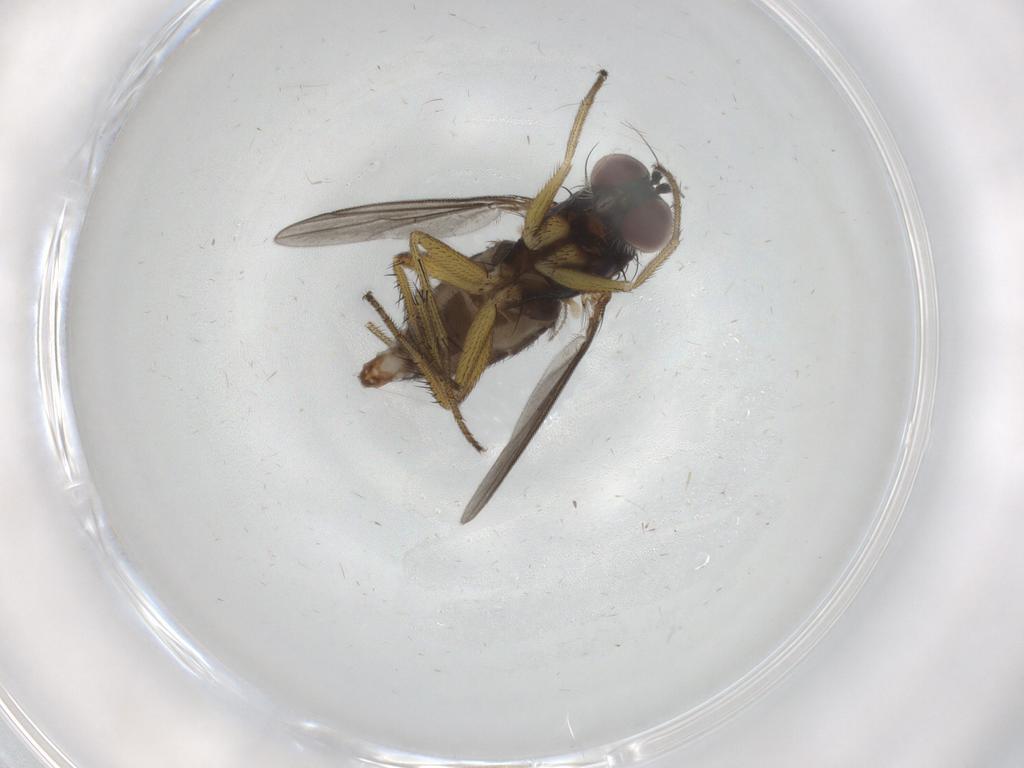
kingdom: Animalia
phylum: Arthropoda
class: Insecta
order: Diptera
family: Dolichopodidae
